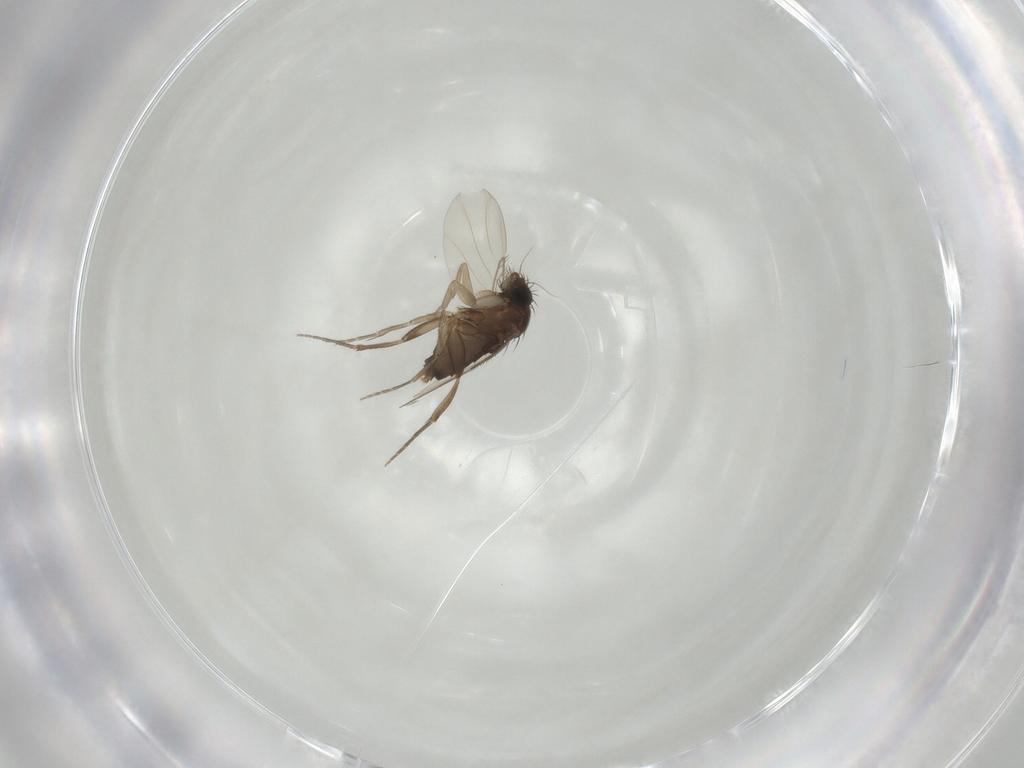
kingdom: Animalia
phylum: Arthropoda
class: Insecta
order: Diptera
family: Phoridae
